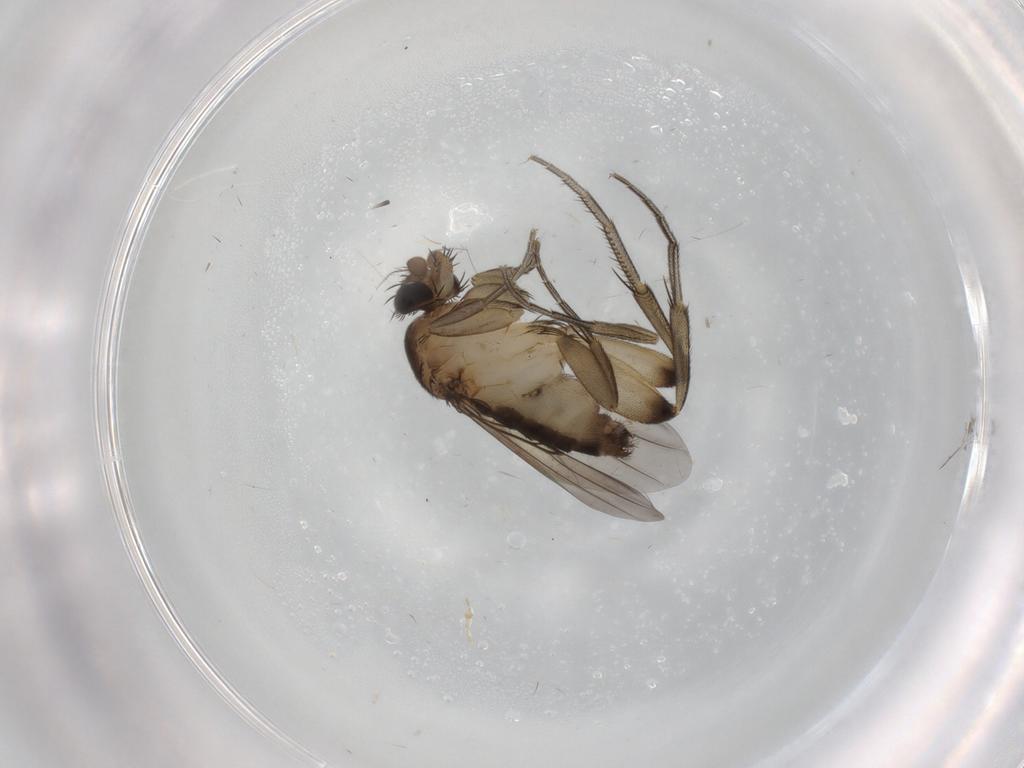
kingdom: Animalia
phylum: Arthropoda
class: Insecta
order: Diptera
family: Phoridae
